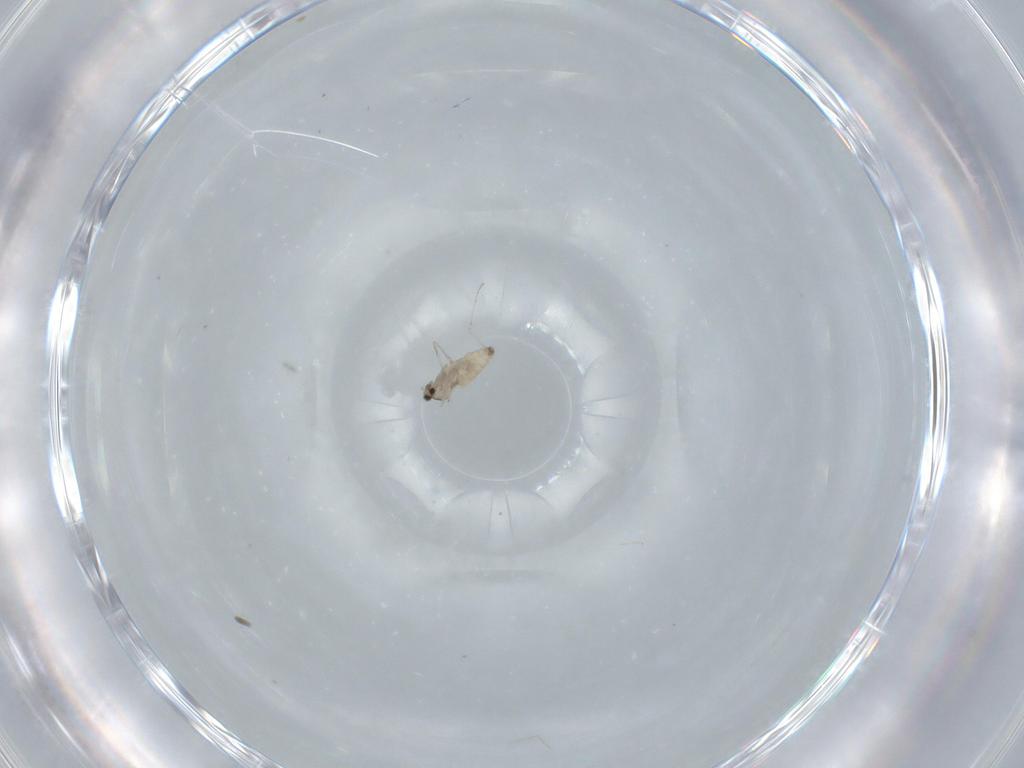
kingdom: Animalia
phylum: Arthropoda
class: Insecta
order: Diptera
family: Cecidomyiidae
